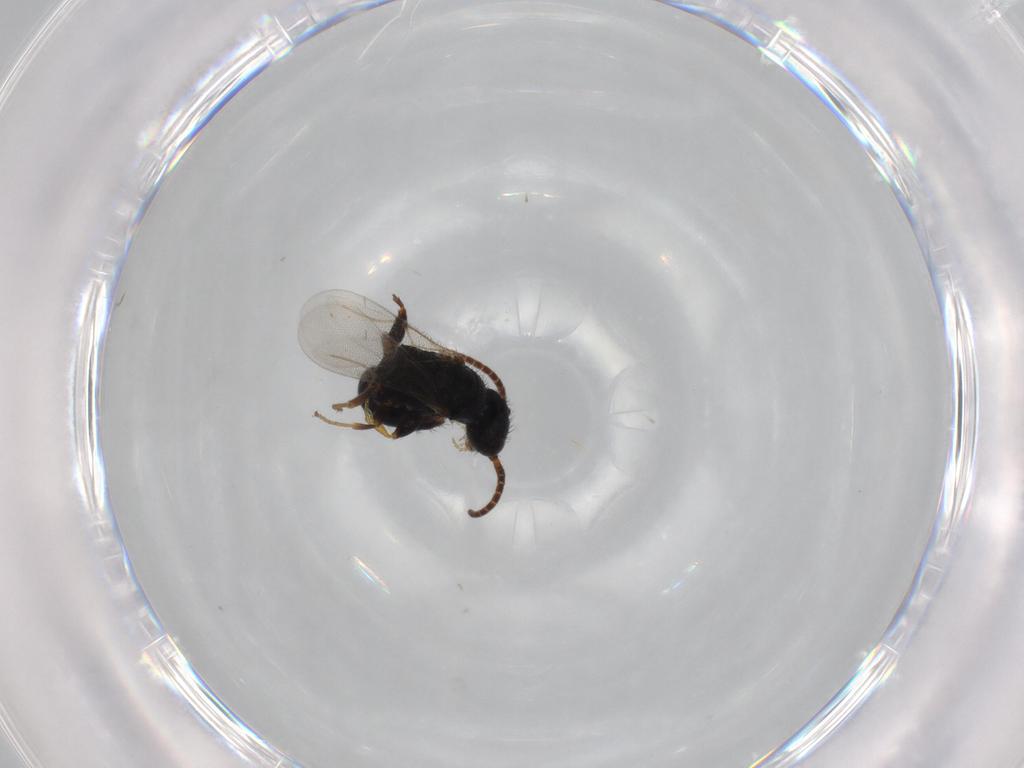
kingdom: Animalia
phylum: Arthropoda
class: Insecta
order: Hymenoptera
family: Bethylidae
